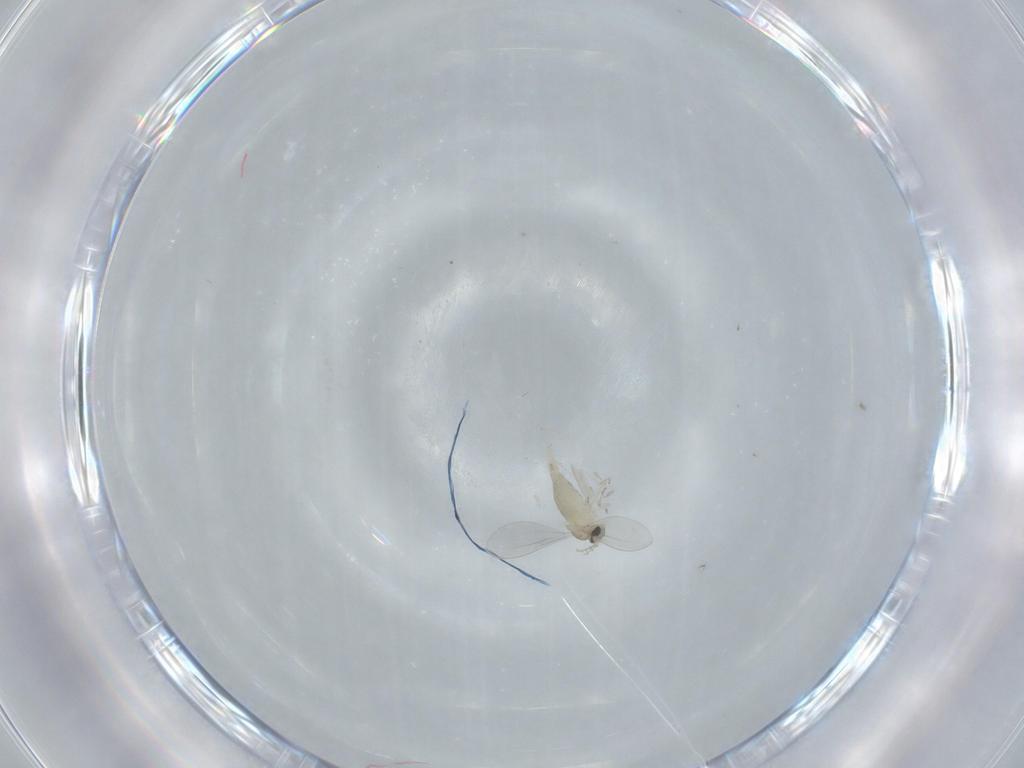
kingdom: Animalia
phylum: Arthropoda
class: Insecta
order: Diptera
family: Cecidomyiidae
